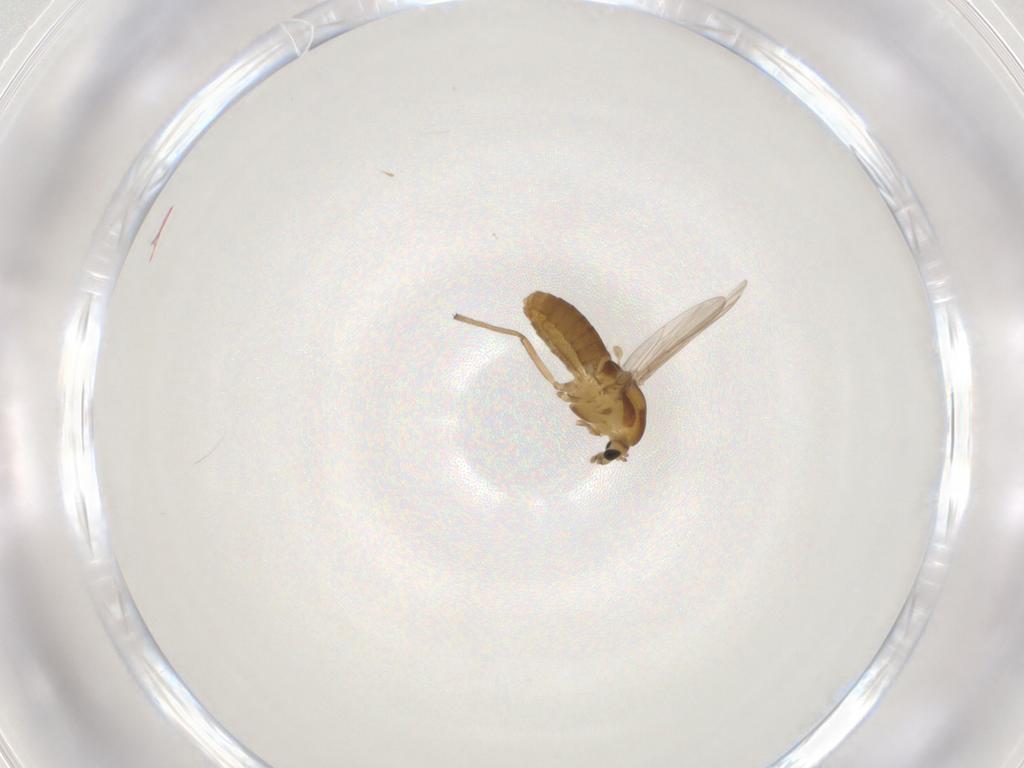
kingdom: Animalia
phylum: Arthropoda
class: Insecta
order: Diptera
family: Chironomidae
